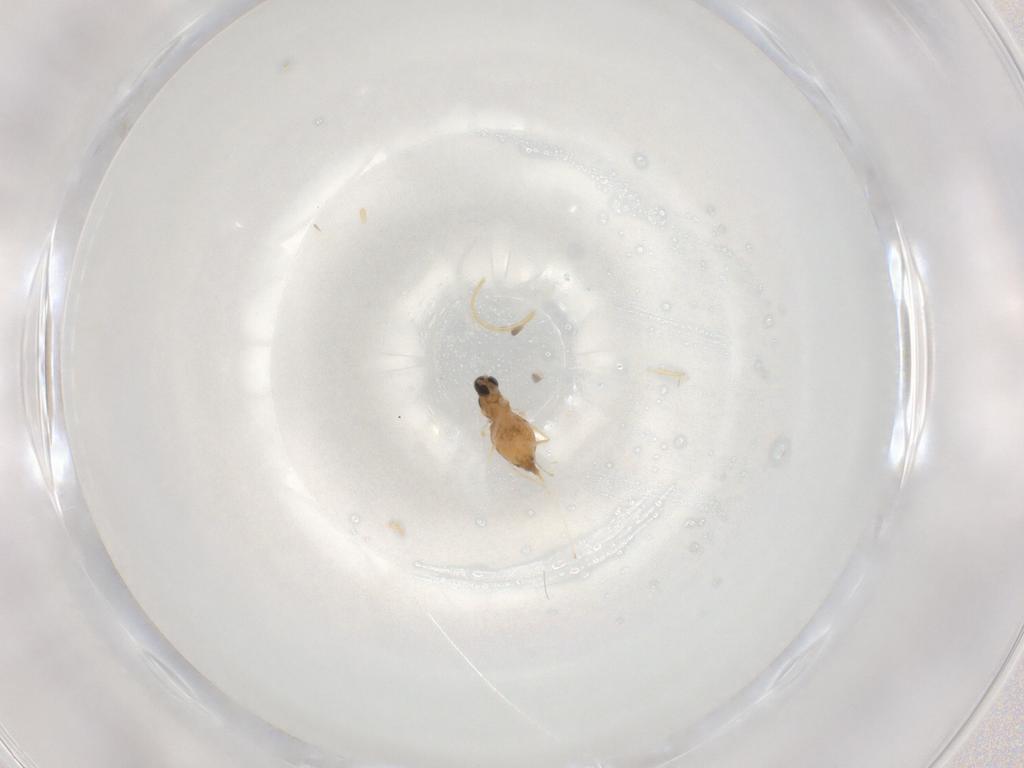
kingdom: Animalia
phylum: Arthropoda
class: Insecta
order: Diptera
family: Cecidomyiidae
